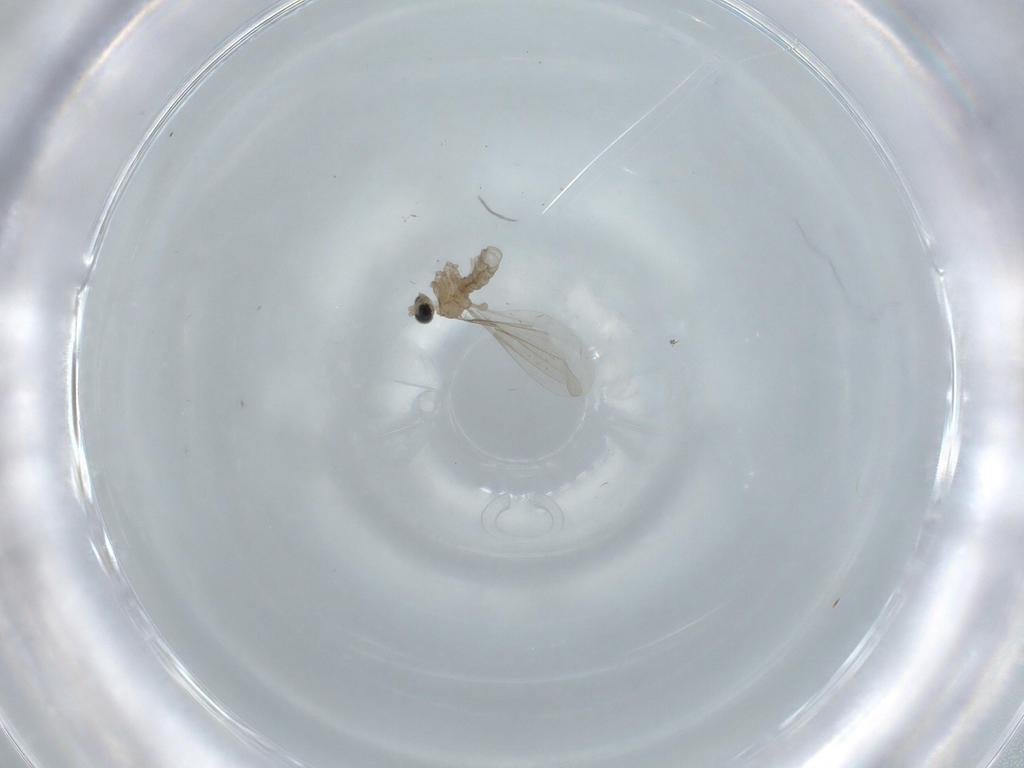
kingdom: Animalia
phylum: Arthropoda
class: Insecta
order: Diptera
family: Cecidomyiidae
